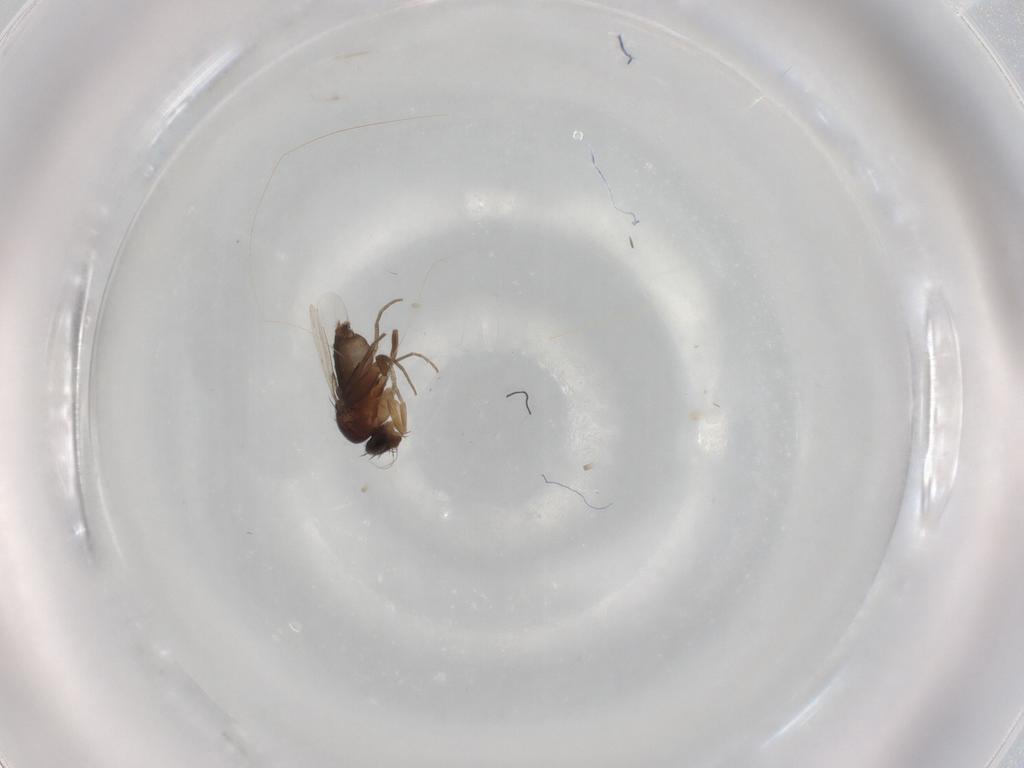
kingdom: Animalia
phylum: Arthropoda
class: Insecta
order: Diptera
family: Phoridae
